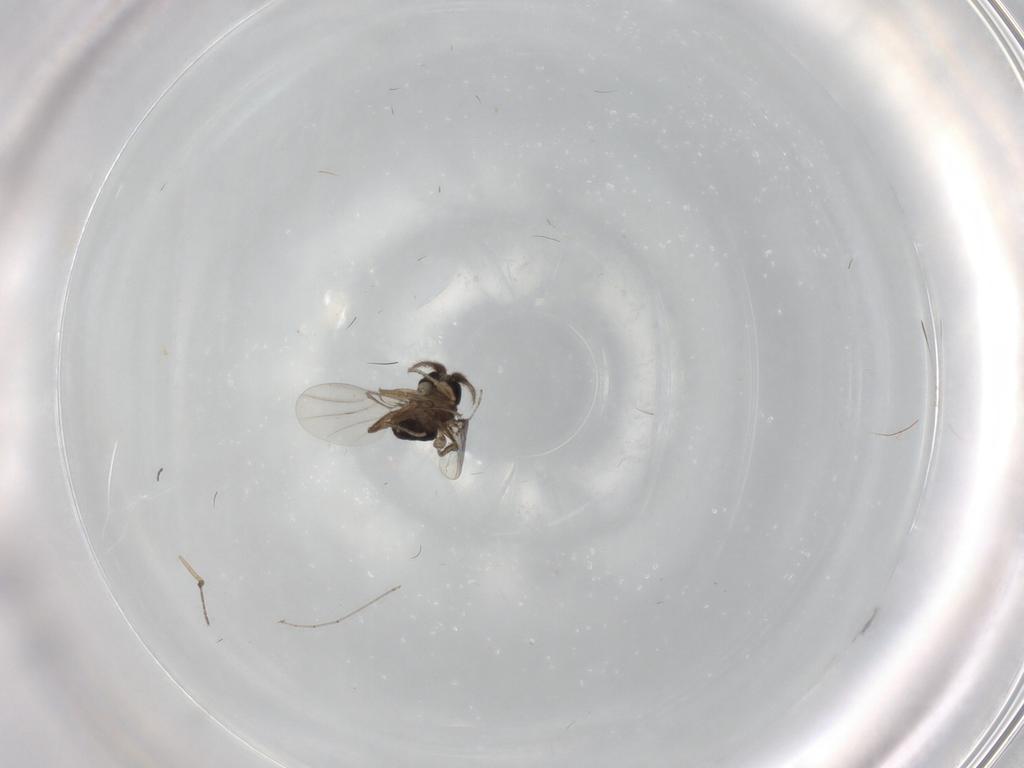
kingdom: Animalia
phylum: Arthropoda
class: Insecta
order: Diptera
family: Phoridae
